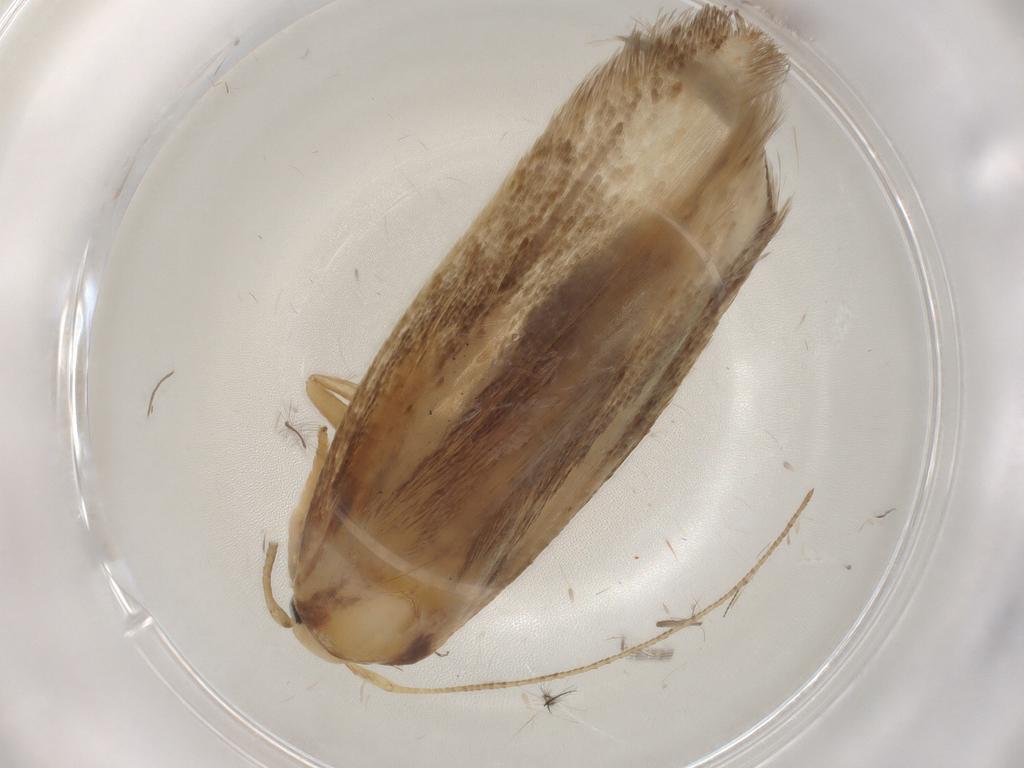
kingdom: Animalia
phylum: Arthropoda
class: Insecta
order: Lepidoptera
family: Geometridae
